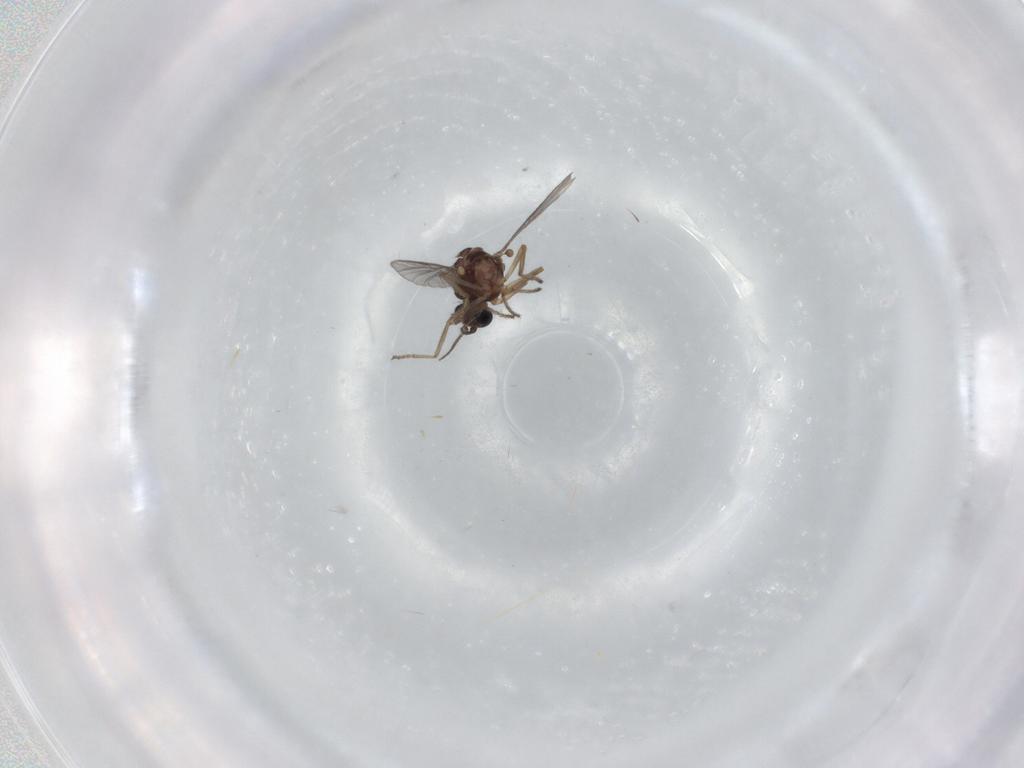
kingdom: Animalia
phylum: Arthropoda
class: Insecta
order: Diptera
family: Ceratopogonidae
